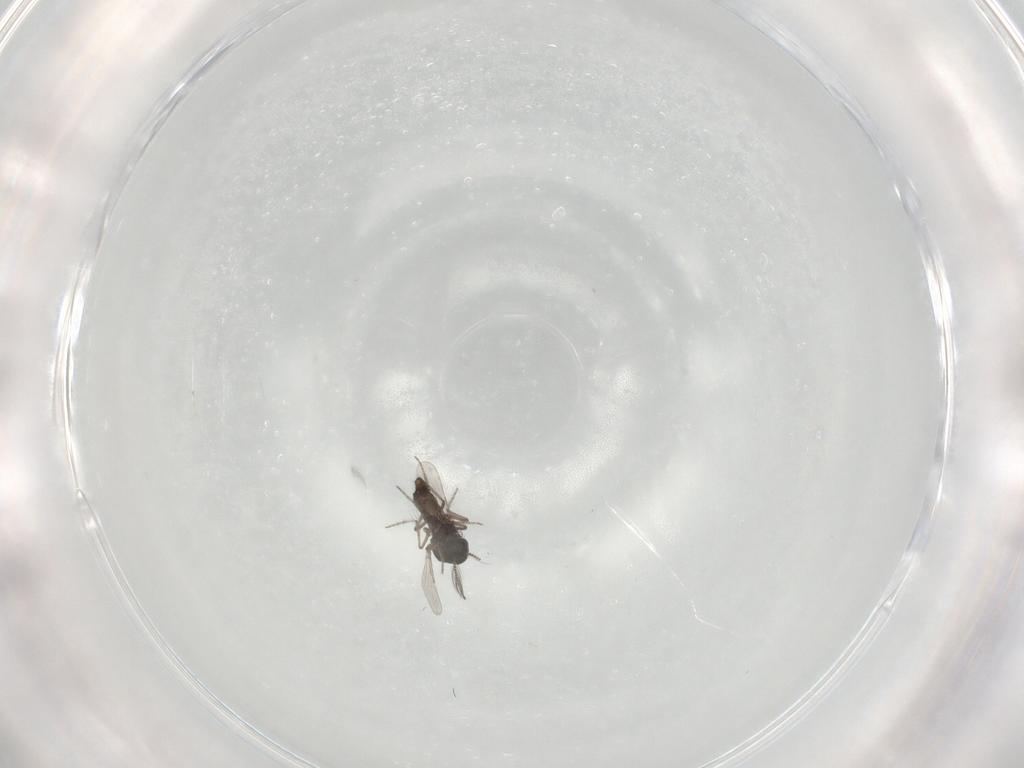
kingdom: Animalia
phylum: Arthropoda
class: Insecta
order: Diptera
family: Ceratopogonidae
